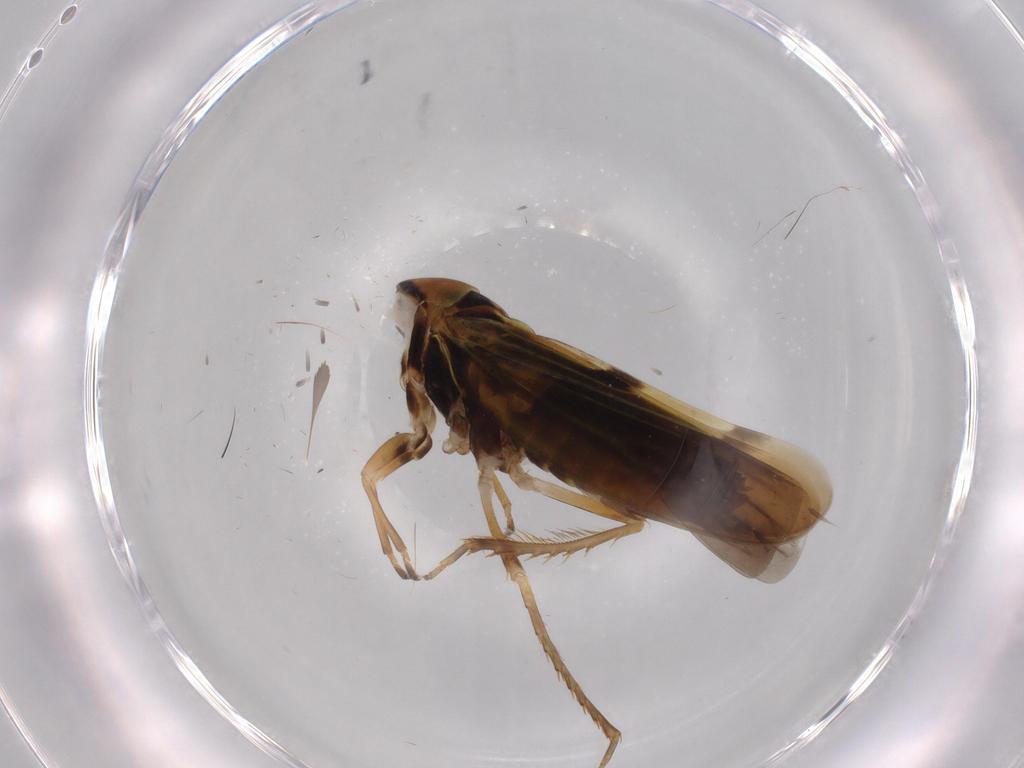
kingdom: Animalia
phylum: Arthropoda
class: Insecta
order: Hemiptera
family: Cicadellidae
